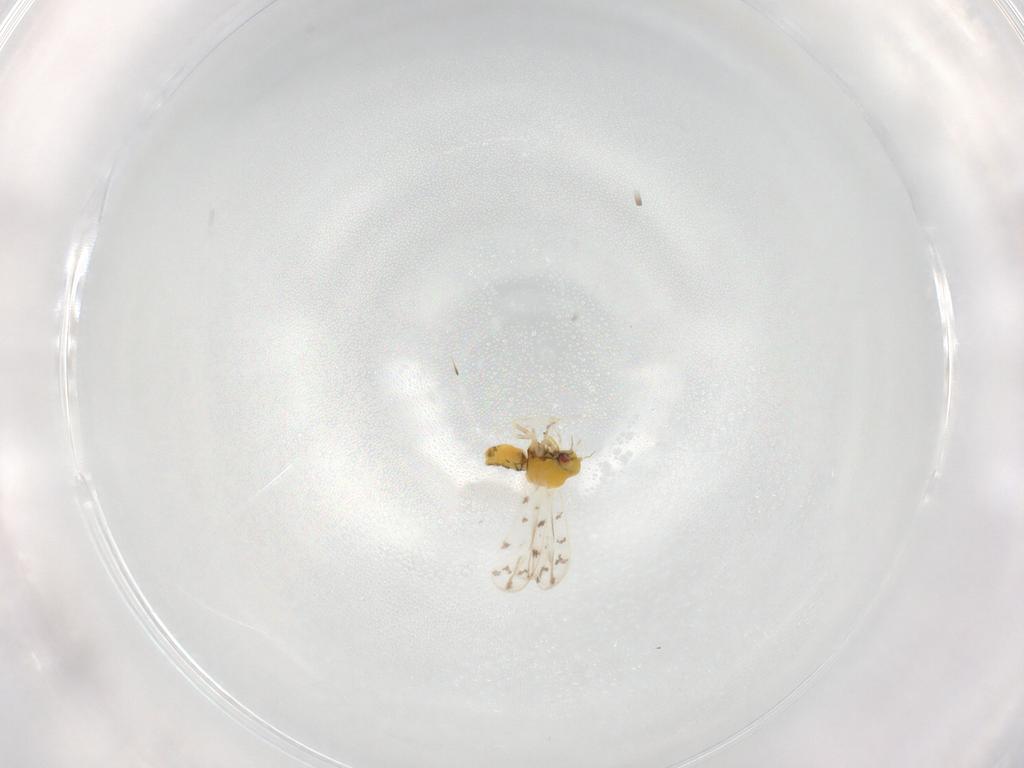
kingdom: Animalia
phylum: Arthropoda
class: Insecta
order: Hemiptera
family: Aleyrodidae
